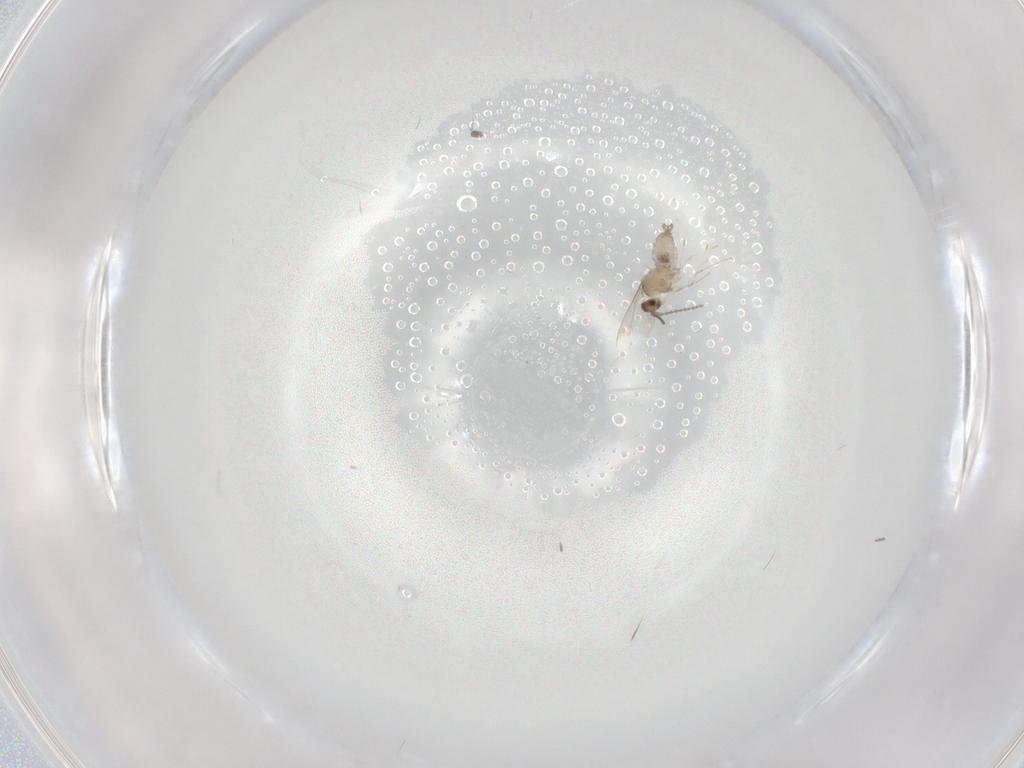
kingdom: Animalia
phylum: Arthropoda
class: Insecta
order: Diptera
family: Cecidomyiidae
